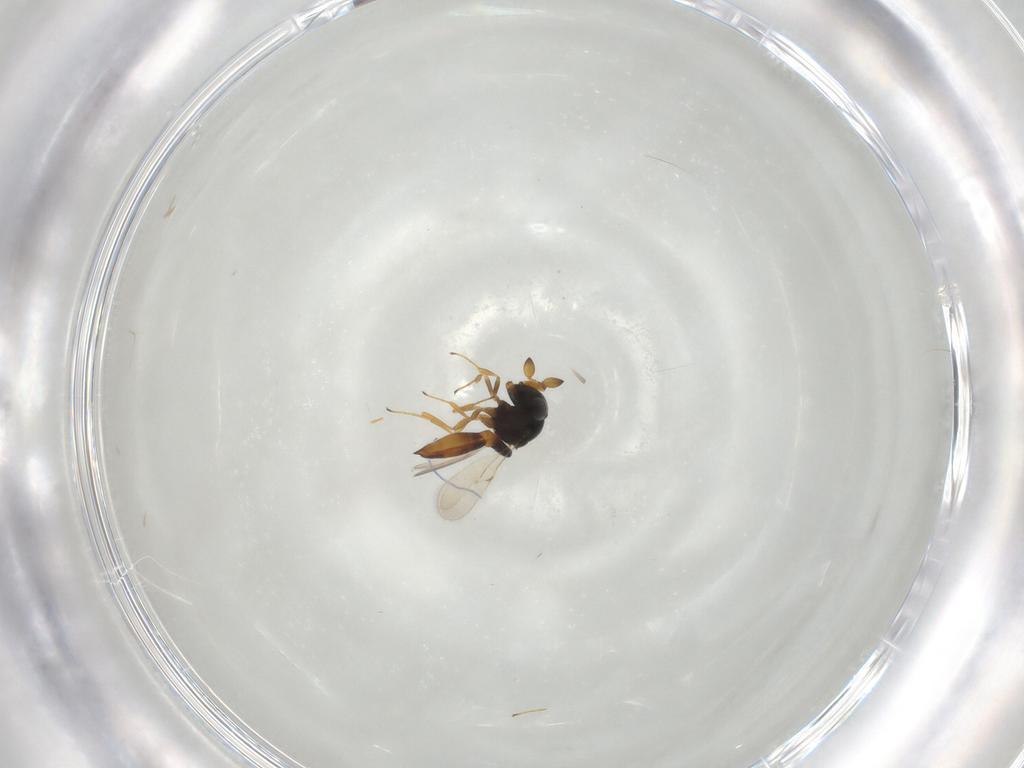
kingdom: Animalia
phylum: Arthropoda
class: Insecta
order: Hymenoptera
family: Scelionidae
